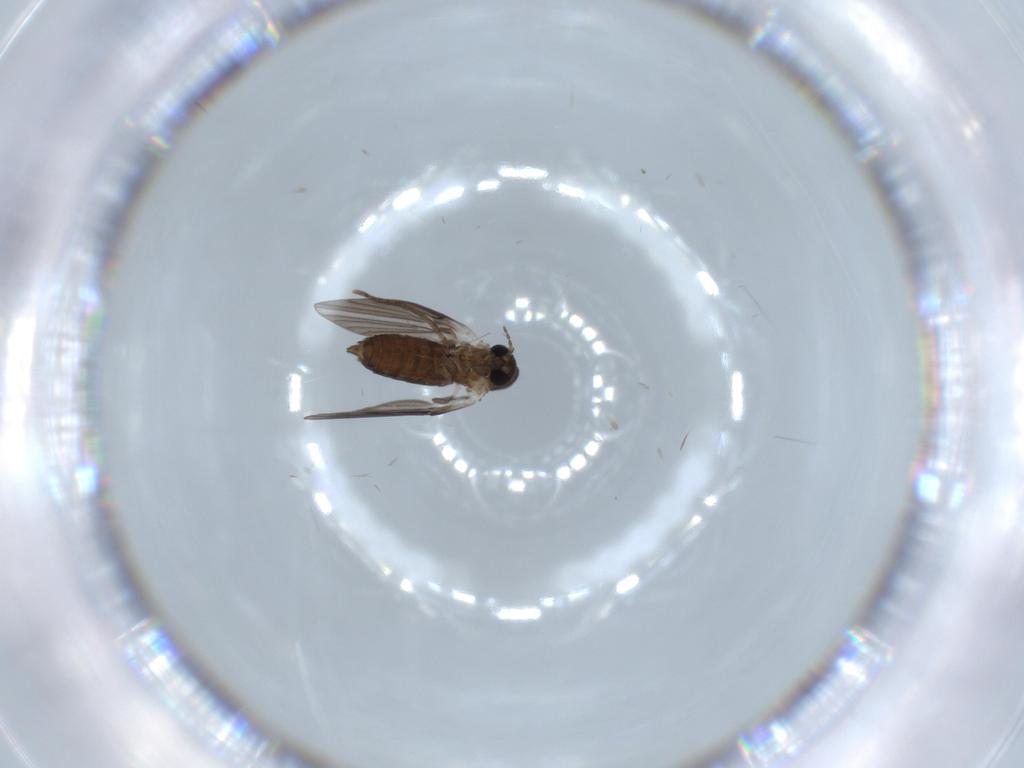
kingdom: Animalia
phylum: Arthropoda
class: Insecta
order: Diptera
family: Psychodidae
